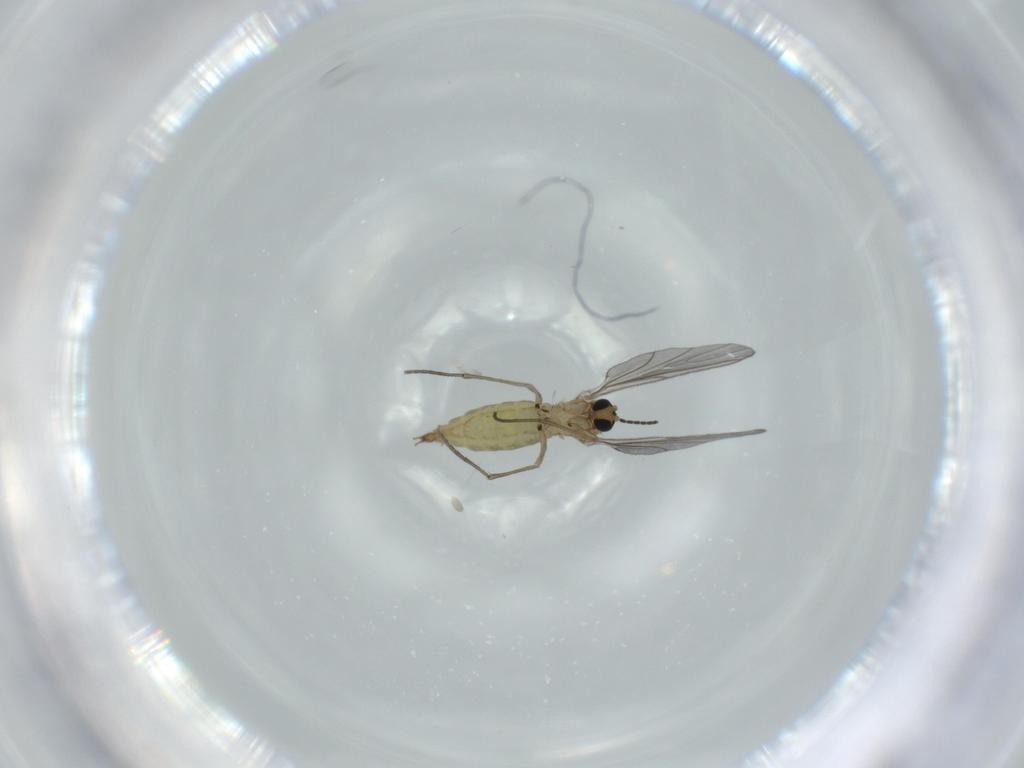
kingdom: Animalia
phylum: Arthropoda
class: Insecta
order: Diptera
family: Sciaridae
